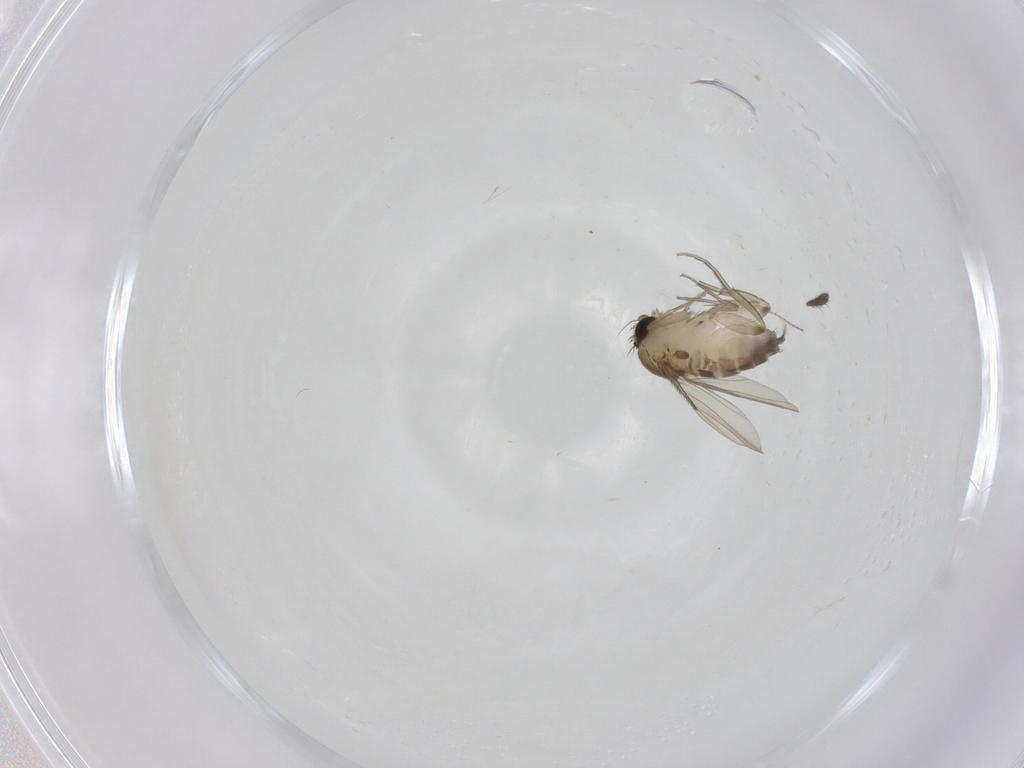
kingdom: Animalia
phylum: Arthropoda
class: Insecta
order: Diptera
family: Phoridae
